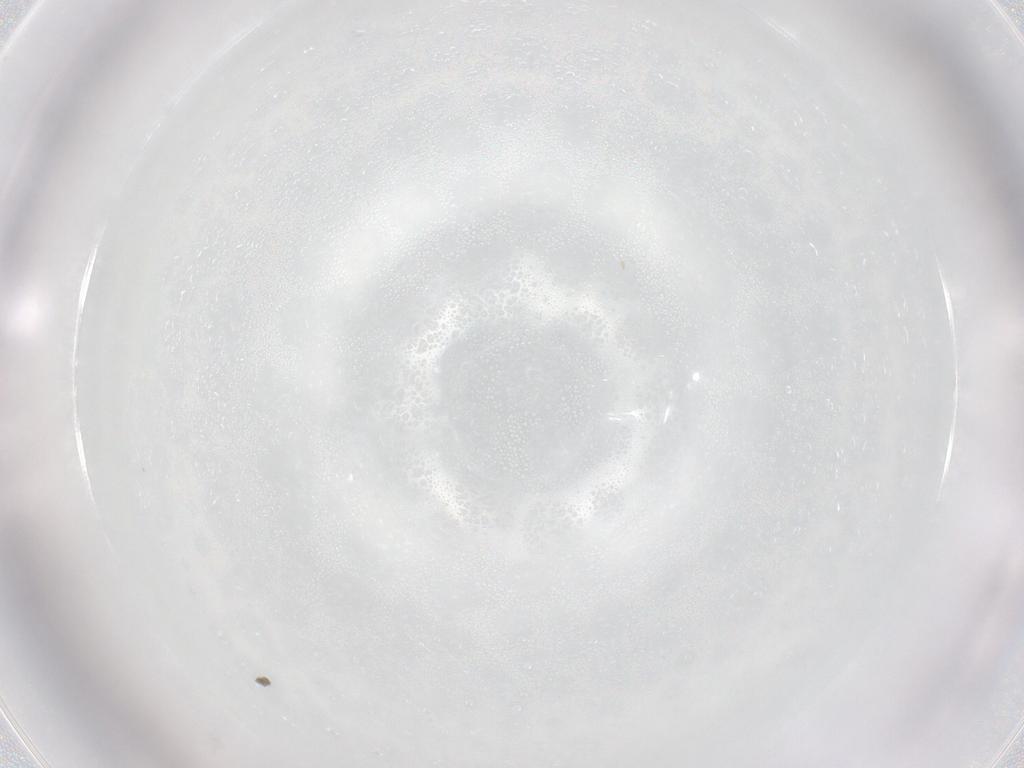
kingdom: Animalia
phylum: Arthropoda
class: Insecta
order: Hymenoptera
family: Trichogrammatidae
